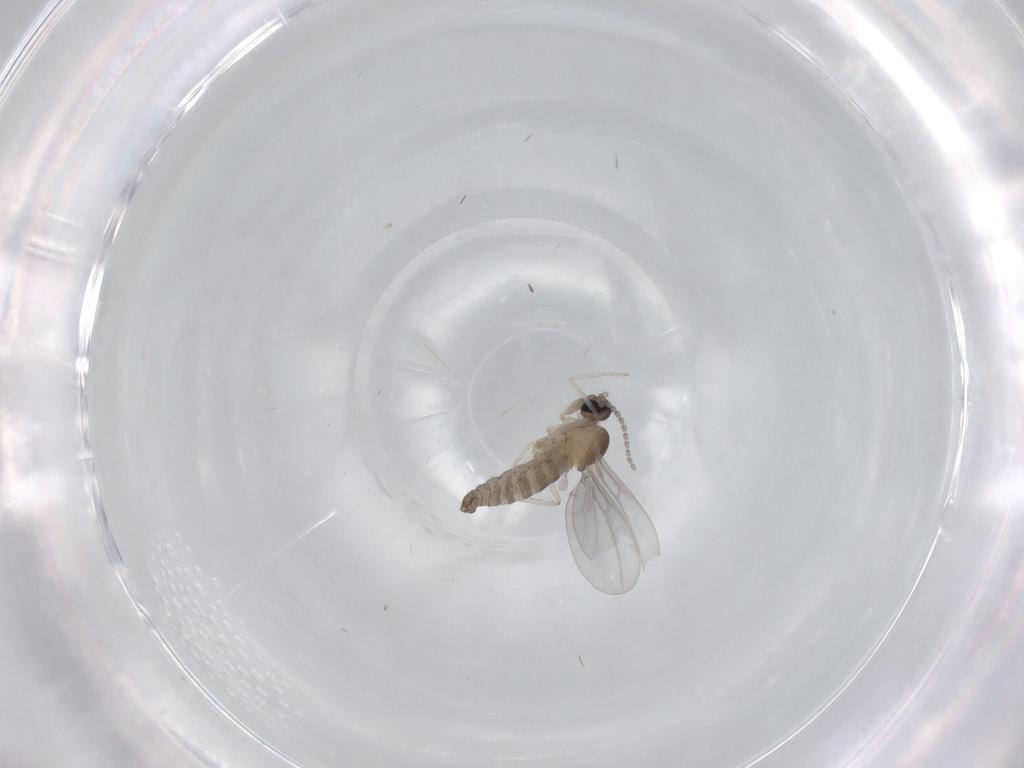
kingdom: Animalia
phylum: Arthropoda
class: Insecta
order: Diptera
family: Cecidomyiidae
